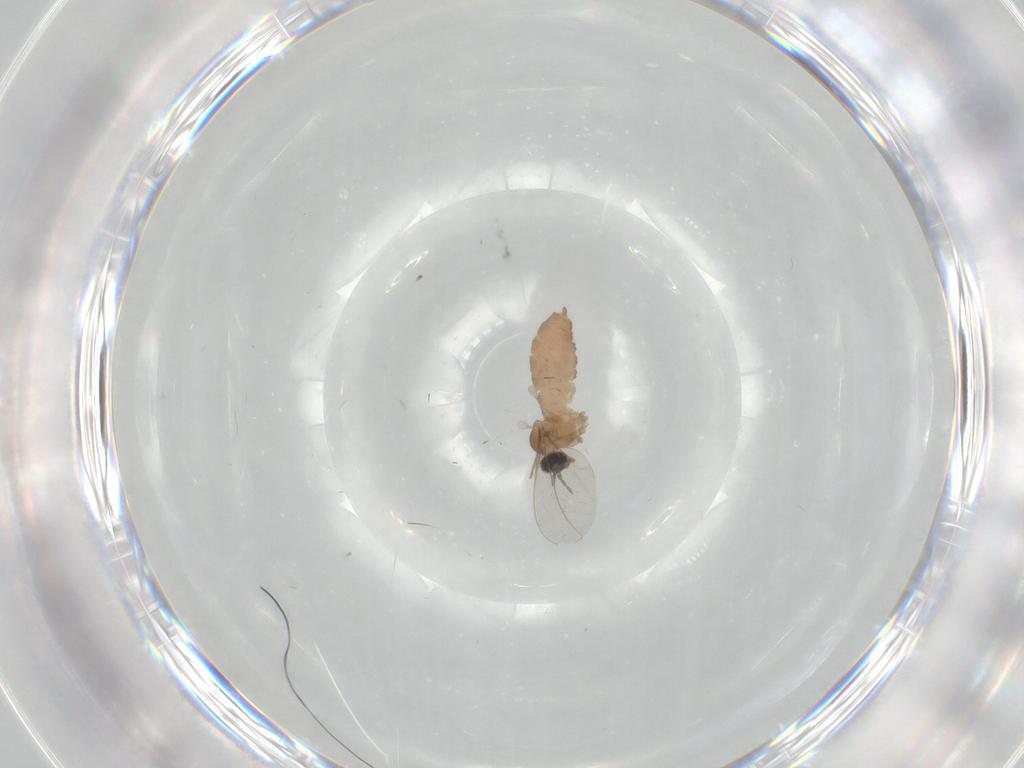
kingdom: Animalia
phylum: Arthropoda
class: Insecta
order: Diptera
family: Cecidomyiidae
